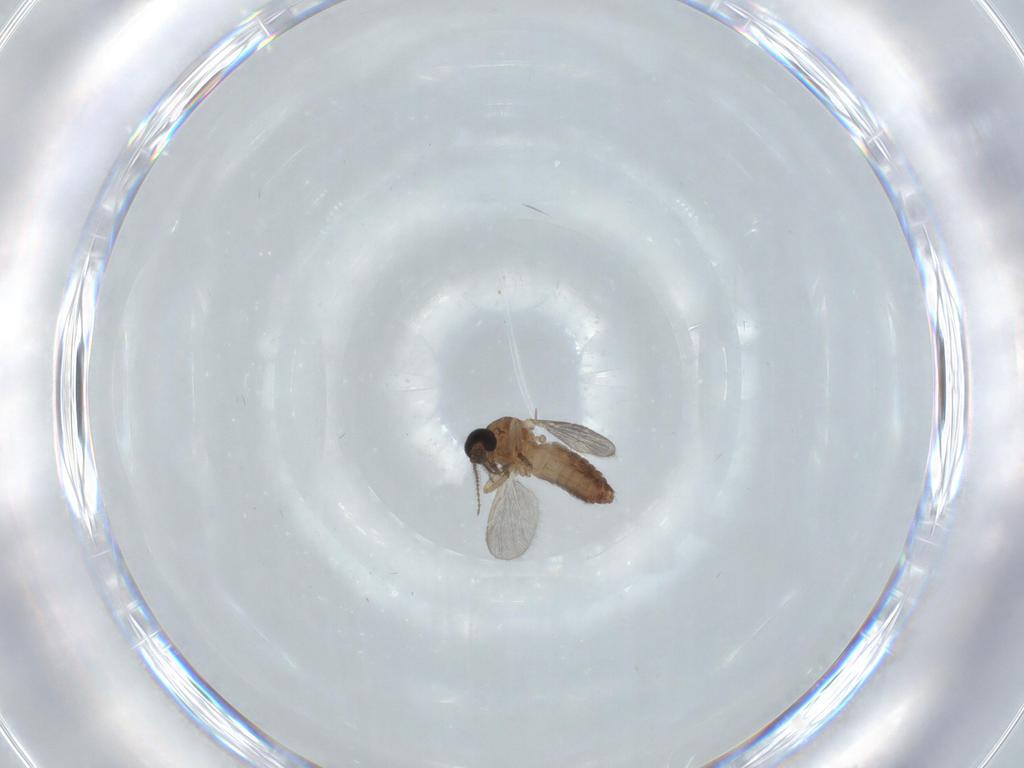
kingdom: Animalia
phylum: Arthropoda
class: Insecta
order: Diptera
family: Ceratopogonidae
